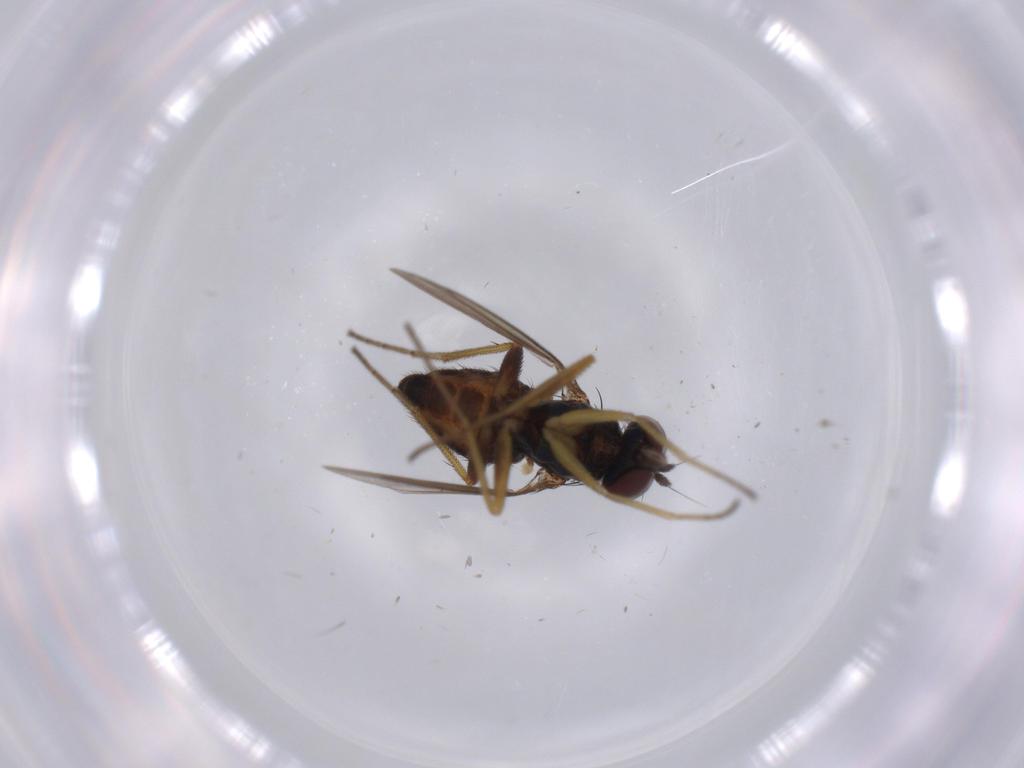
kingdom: Animalia
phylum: Arthropoda
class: Insecta
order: Diptera
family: Dolichopodidae
